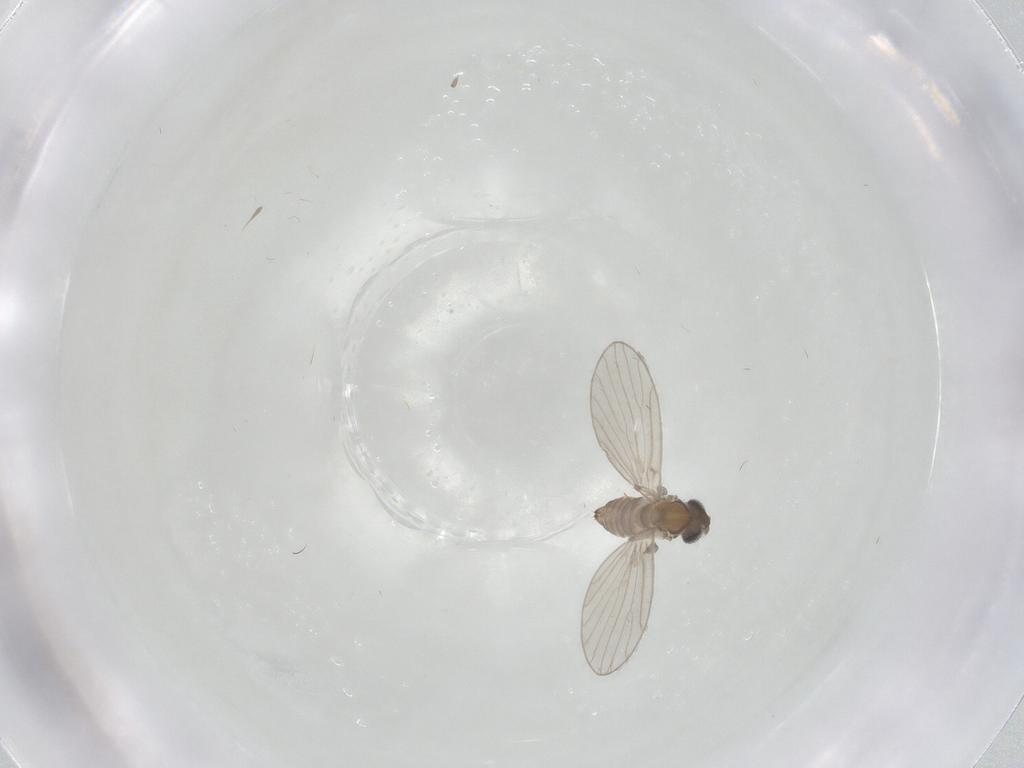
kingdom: Animalia
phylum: Arthropoda
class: Insecta
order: Diptera
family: Psychodidae
